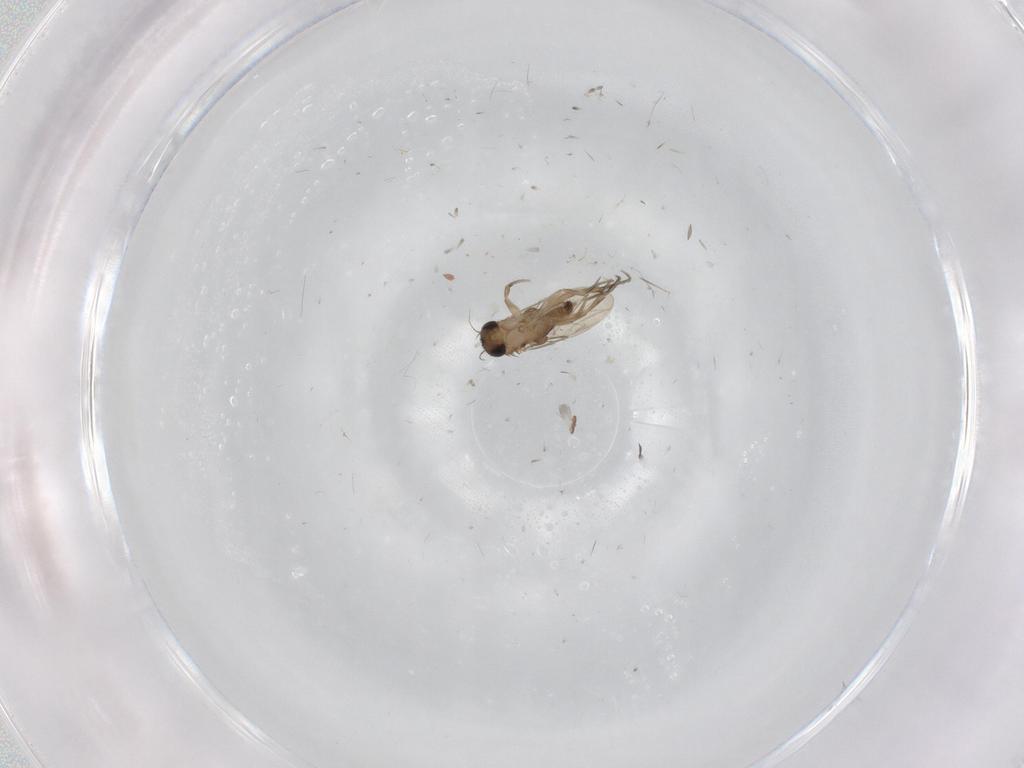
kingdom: Animalia
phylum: Arthropoda
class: Insecta
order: Diptera
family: Phoridae
